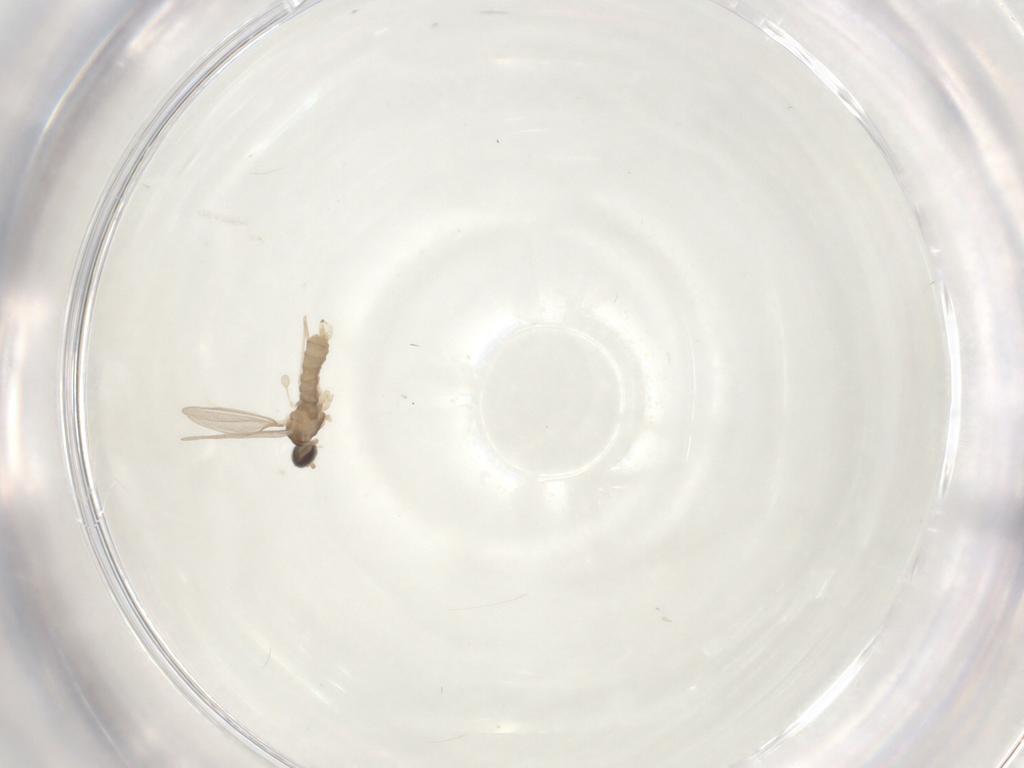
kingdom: Animalia
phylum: Arthropoda
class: Insecta
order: Diptera
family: Cecidomyiidae
